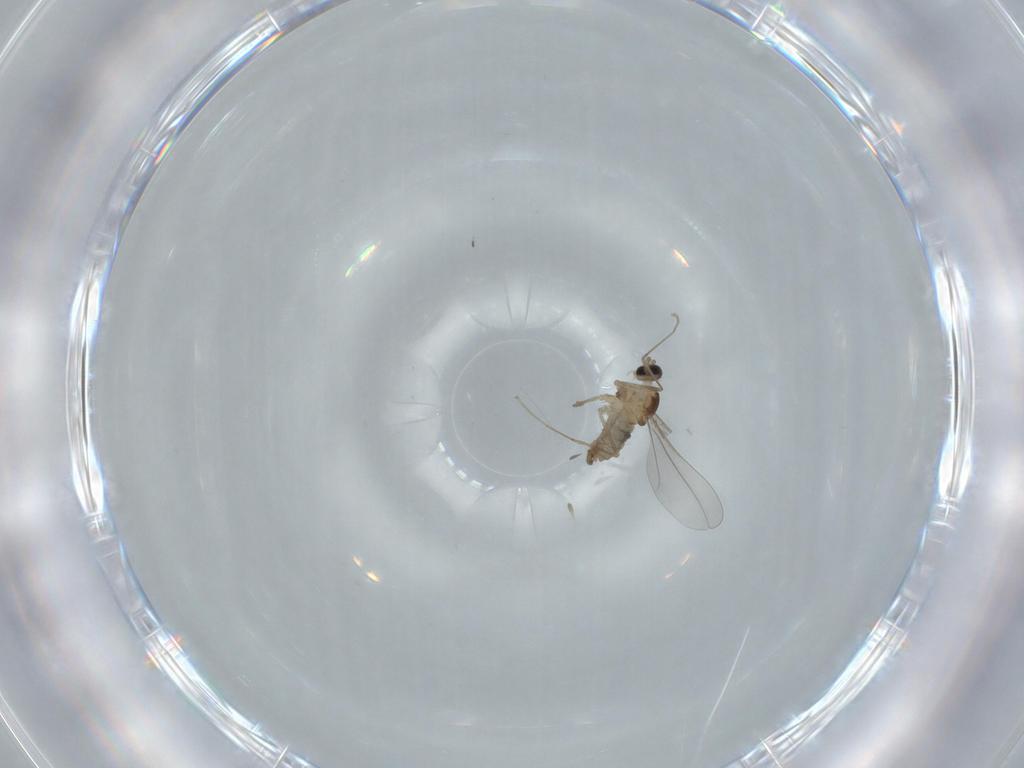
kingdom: Animalia
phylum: Arthropoda
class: Insecta
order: Diptera
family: Cecidomyiidae
